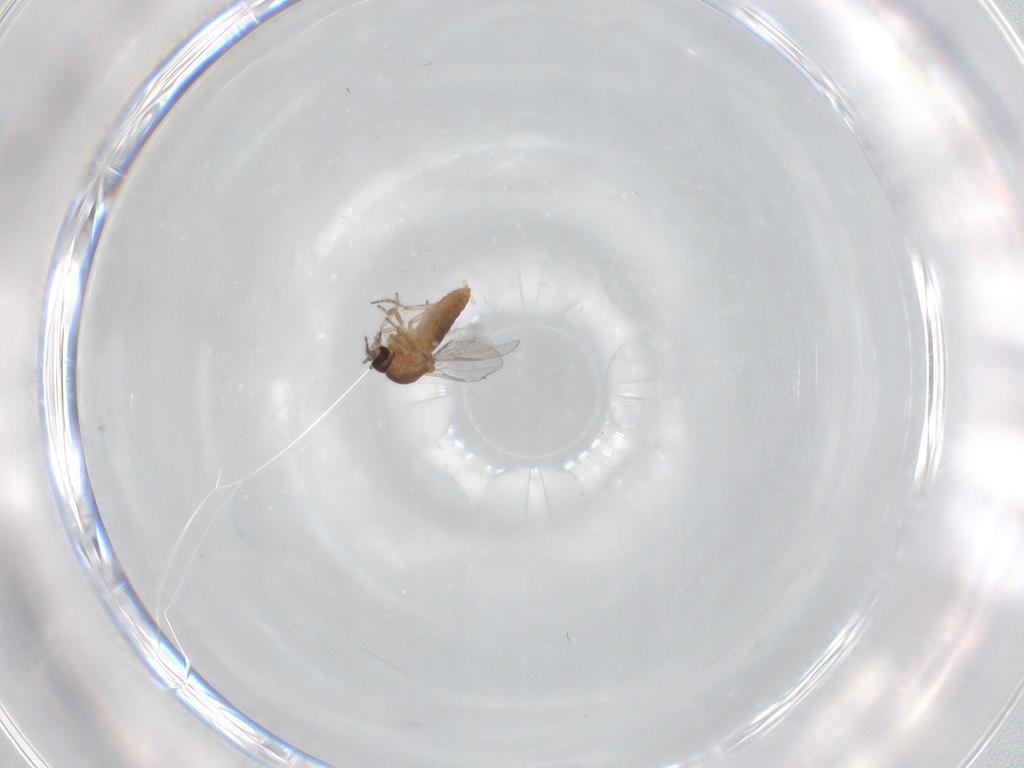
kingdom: Animalia
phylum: Arthropoda
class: Insecta
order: Diptera
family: Ceratopogonidae
